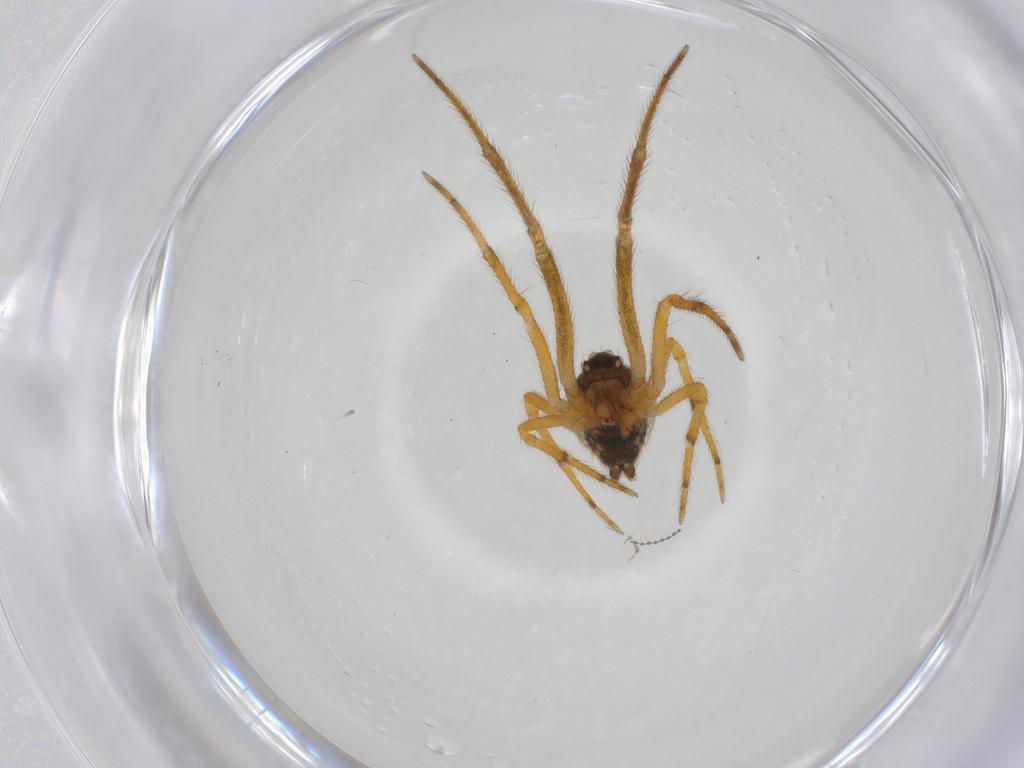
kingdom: Animalia
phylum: Arthropoda
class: Arachnida
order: Araneae
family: Theridiidae
